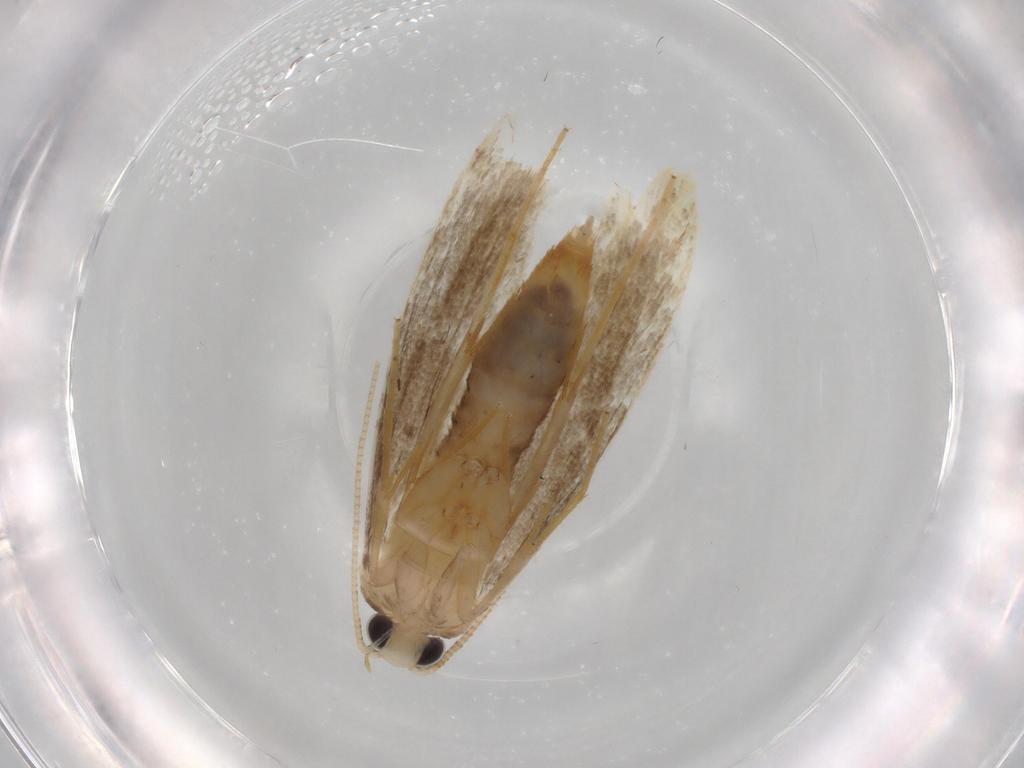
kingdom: Animalia
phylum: Arthropoda
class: Insecta
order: Lepidoptera
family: Tineidae
